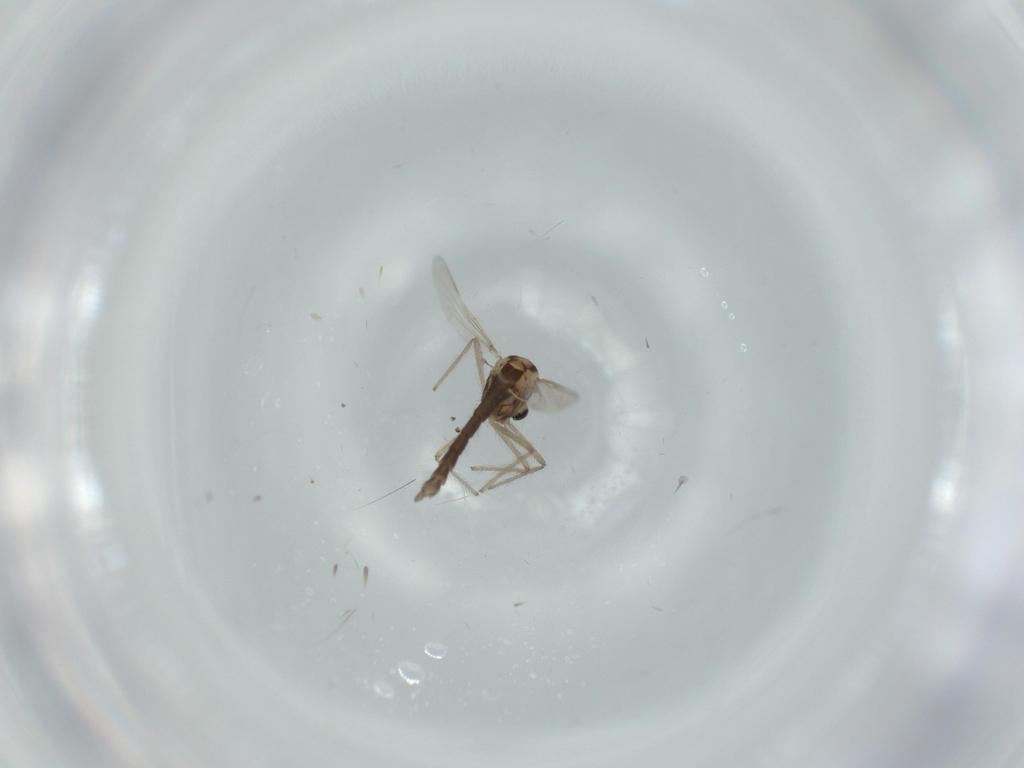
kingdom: Animalia
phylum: Arthropoda
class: Insecta
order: Diptera
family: Chironomidae
